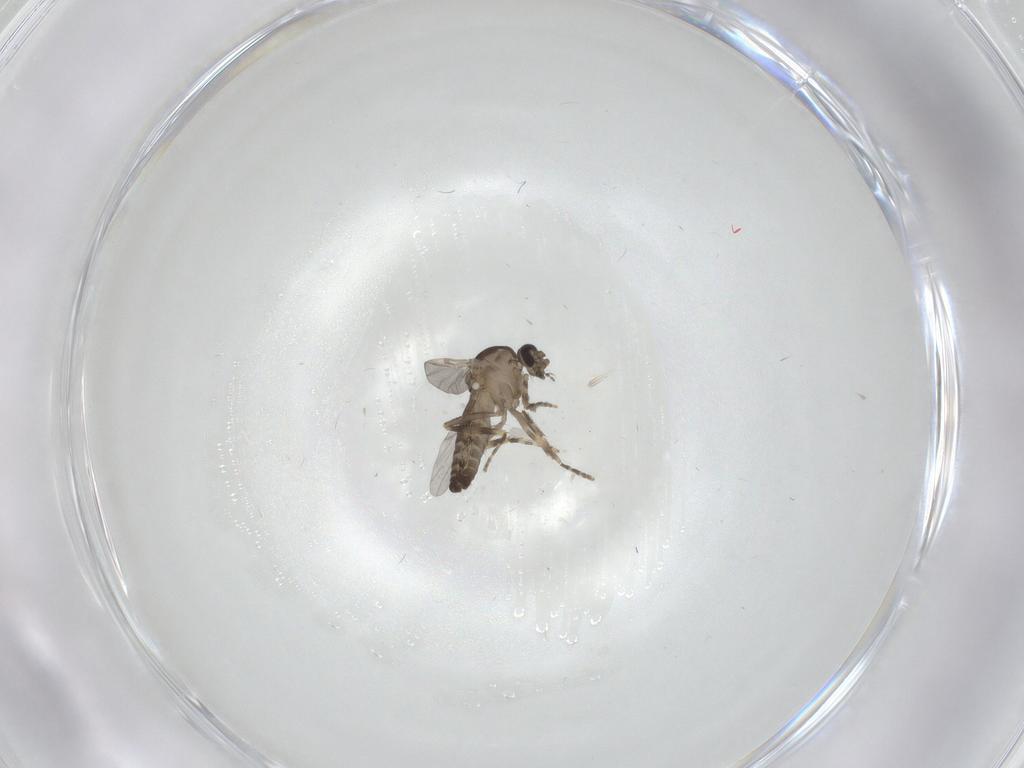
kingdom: Animalia
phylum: Arthropoda
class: Insecta
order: Diptera
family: Ceratopogonidae
